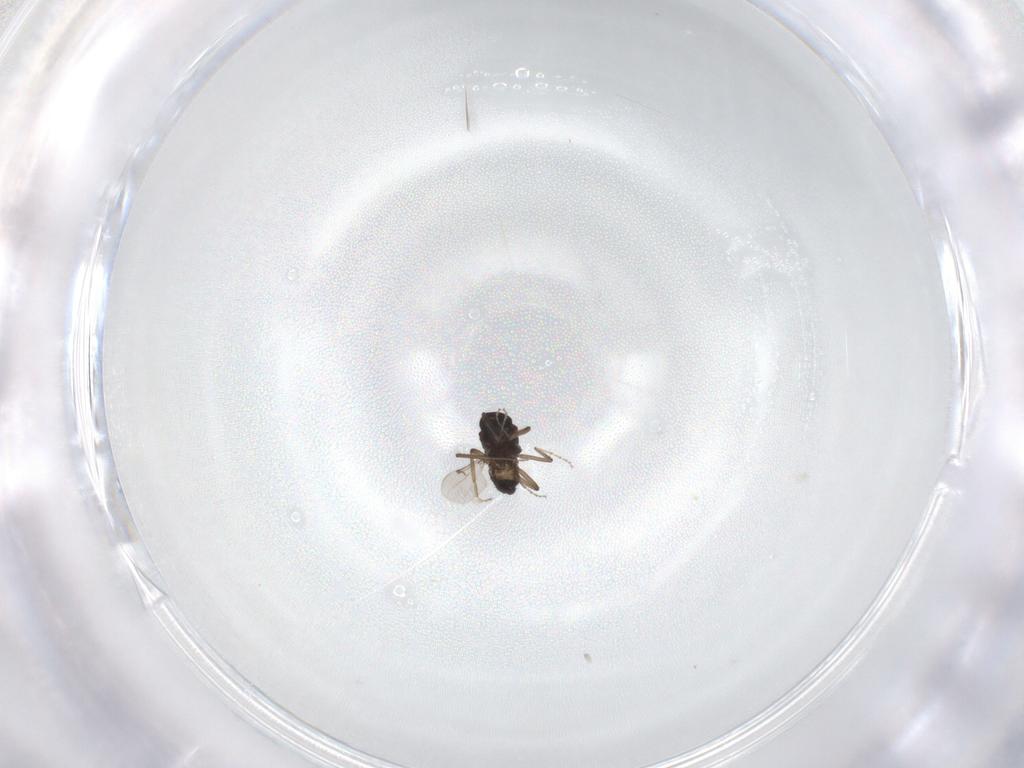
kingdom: Animalia
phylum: Arthropoda
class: Insecta
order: Diptera
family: Ceratopogonidae
